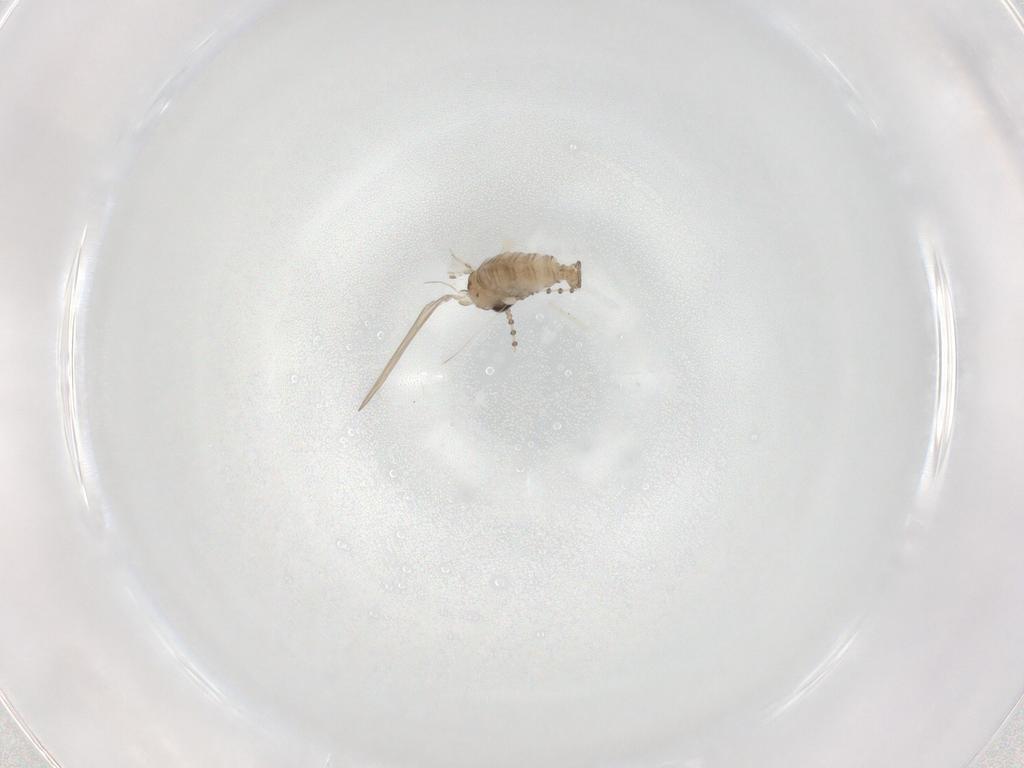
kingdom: Animalia
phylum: Arthropoda
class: Insecta
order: Diptera
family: Psychodidae
